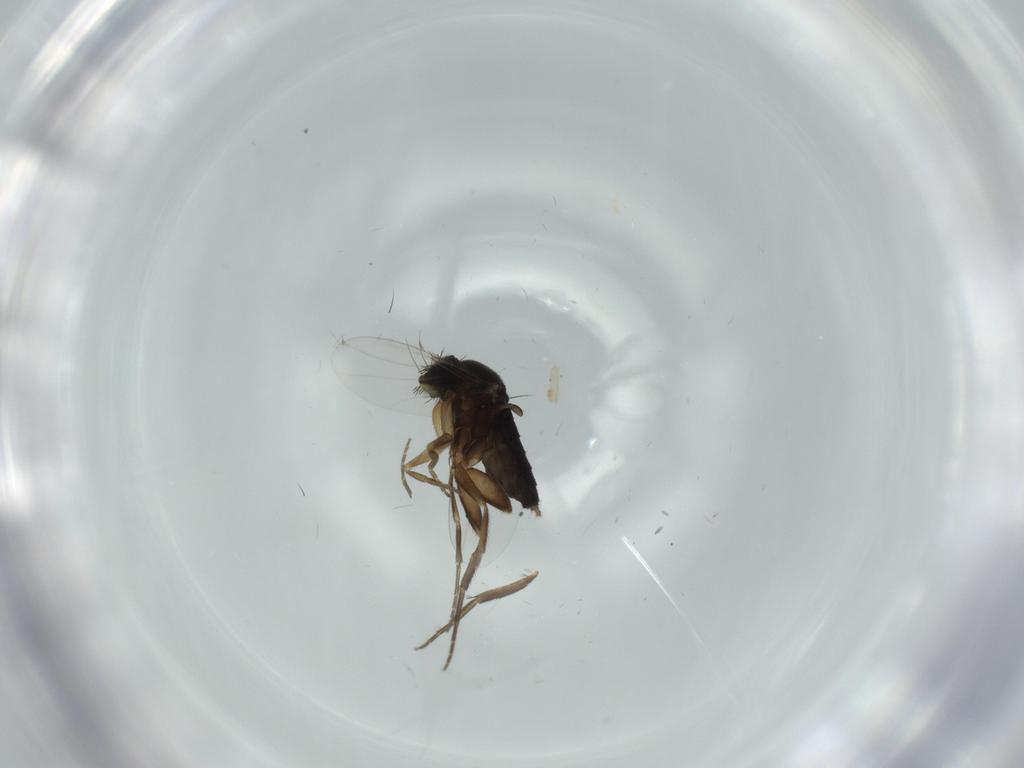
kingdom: Animalia
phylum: Arthropoda
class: Insecta
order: Diptera
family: Phoridae
